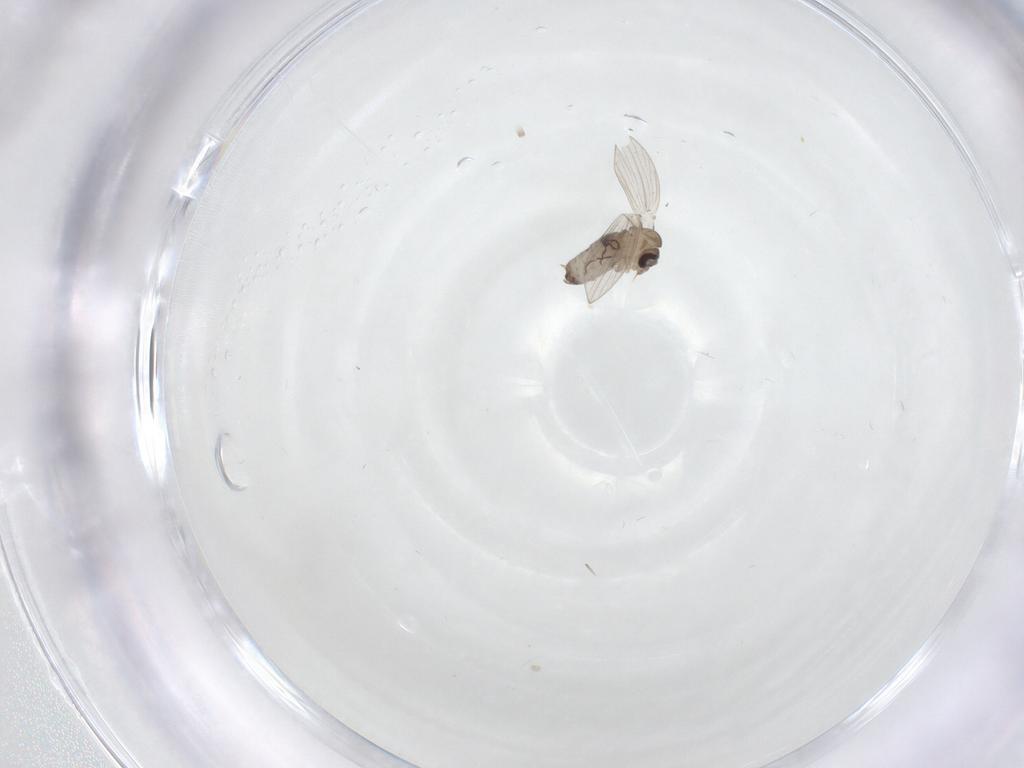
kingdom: Animalia
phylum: Arthropoda
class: Insecta
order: Diptera
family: Psychodidae
